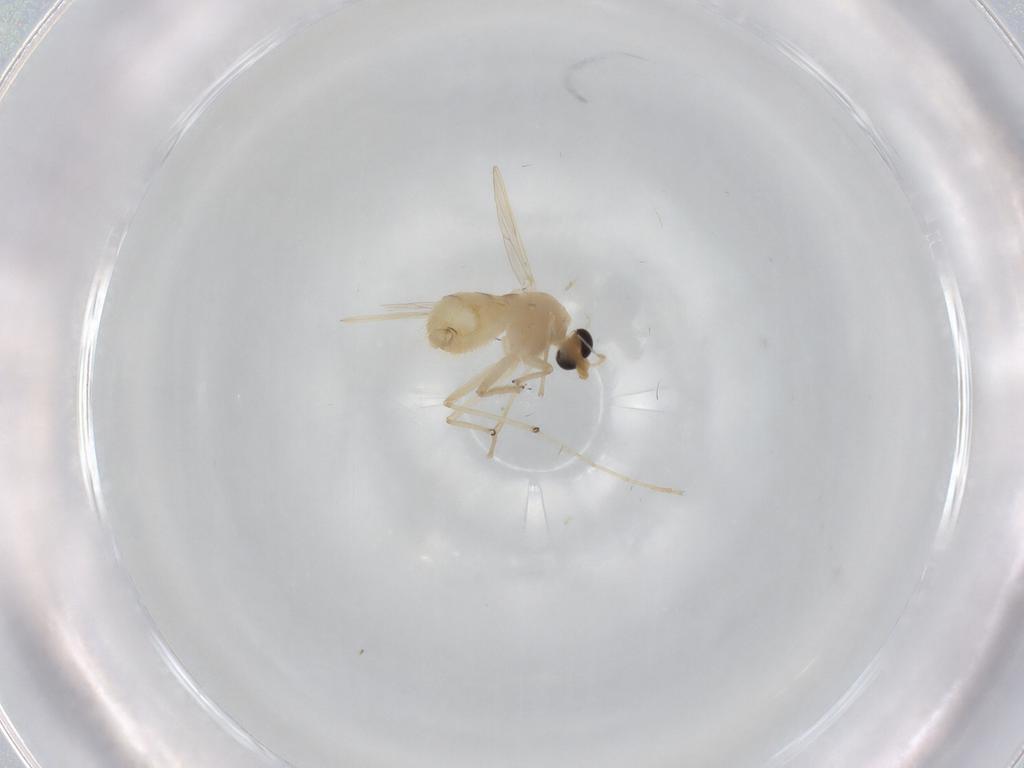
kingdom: Animalia
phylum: Arthropoda
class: Insecta
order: Diptera
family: Chironomidae
